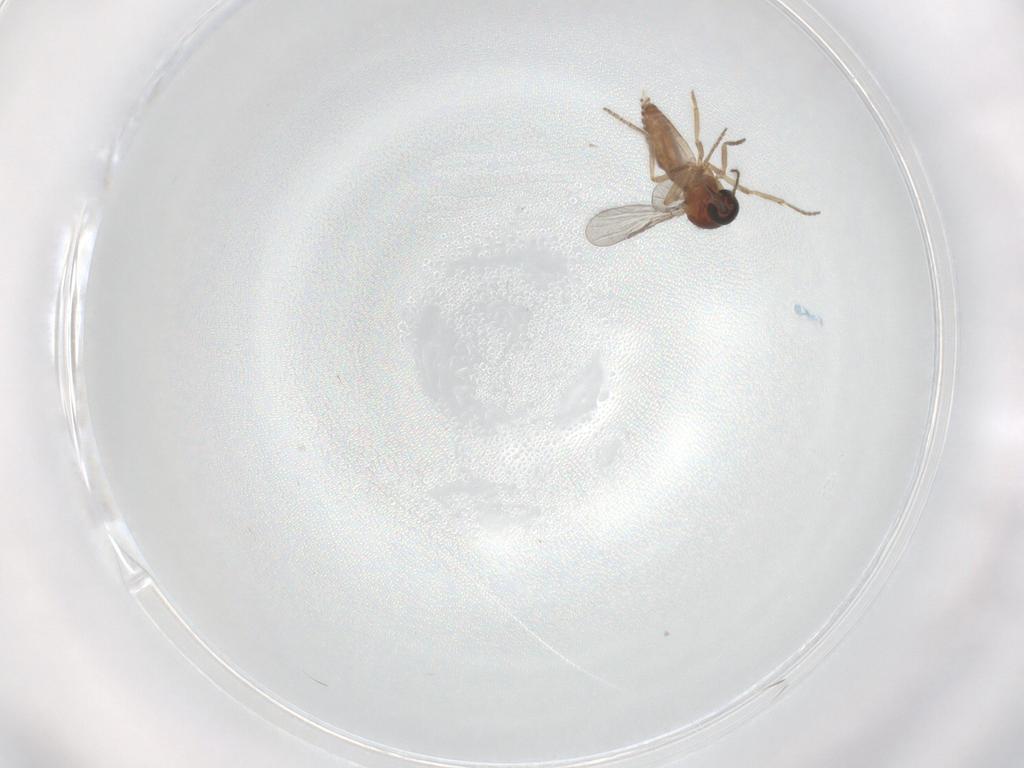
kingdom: Animalia
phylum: Arthropoda
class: Insecta
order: Diptera
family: Ceratopogonidae
